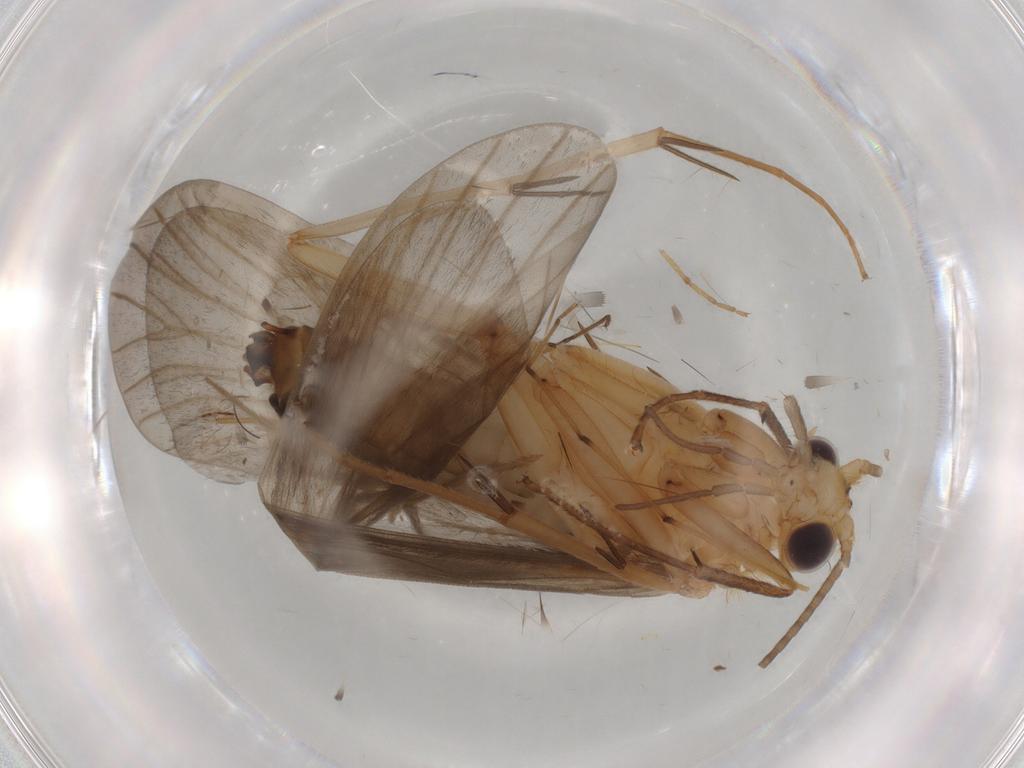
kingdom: Animalia
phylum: Arthropoda
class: Insecta
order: Trichoptera
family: Philopotamidae
